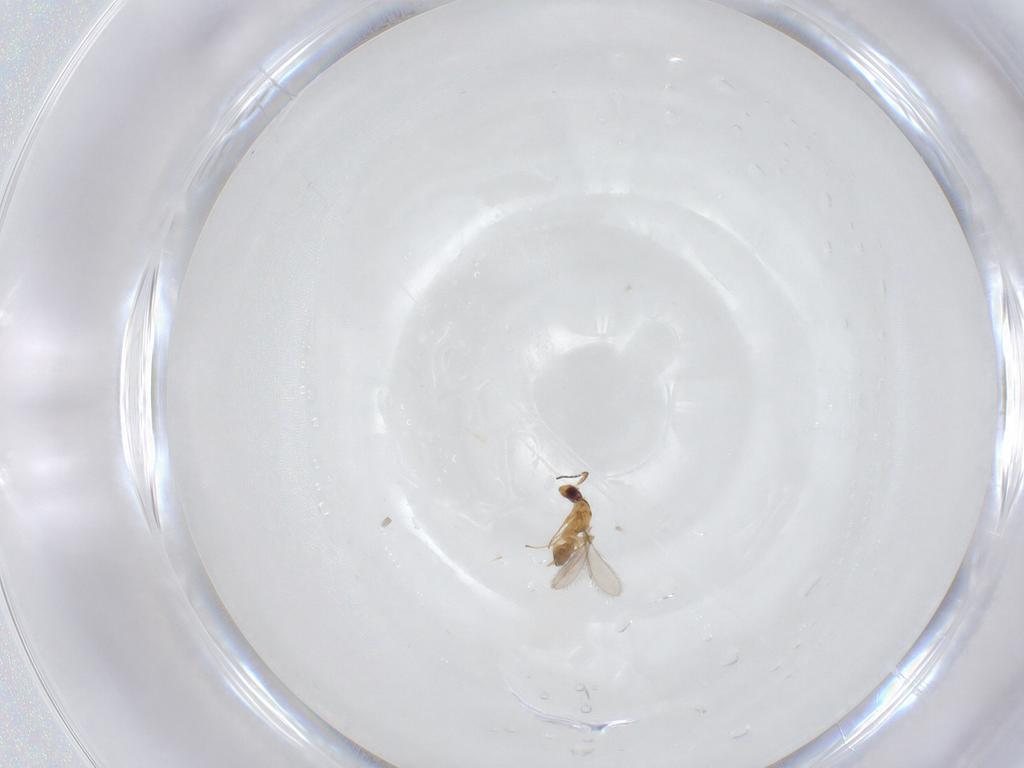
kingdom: Animalia
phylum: Arthropoda
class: Insecta
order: Hymenoptera
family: Mymaridae
